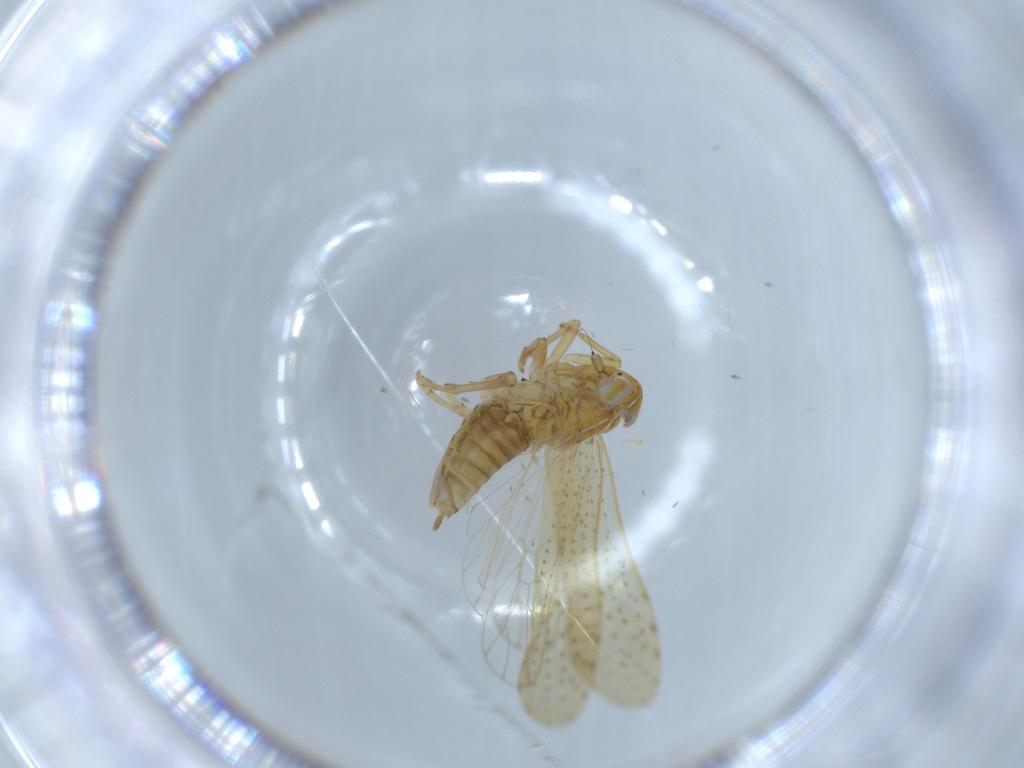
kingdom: Animalia
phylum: Arthropoda
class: Insecta
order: Hemiptera
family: Delphacidae
